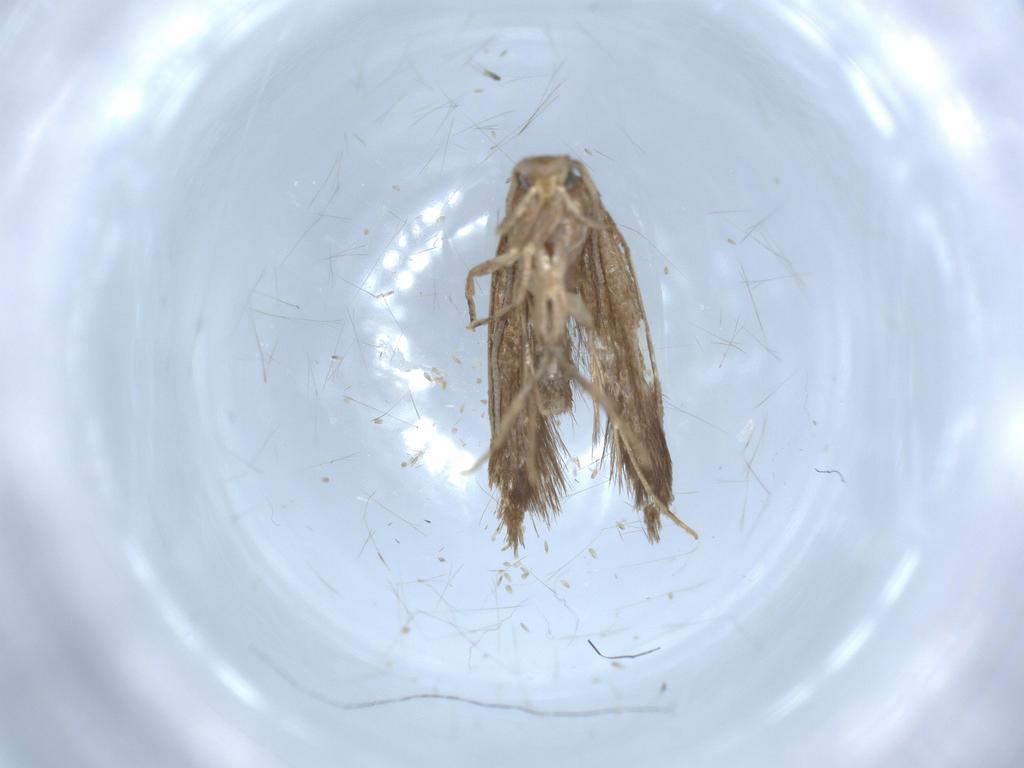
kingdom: Animalia
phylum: Arthropoda
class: Insecta
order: Lepidoptera
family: Tineidae
